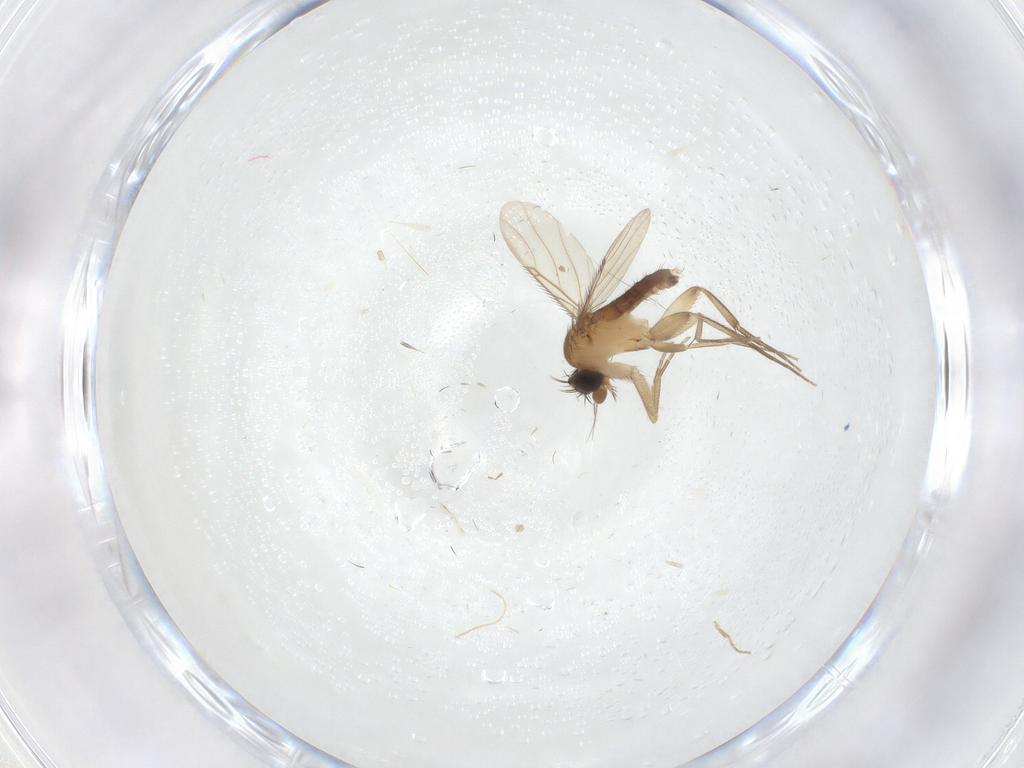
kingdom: Animalia
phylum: Arthropoda
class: Insecta
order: Diptera
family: Phoridae
